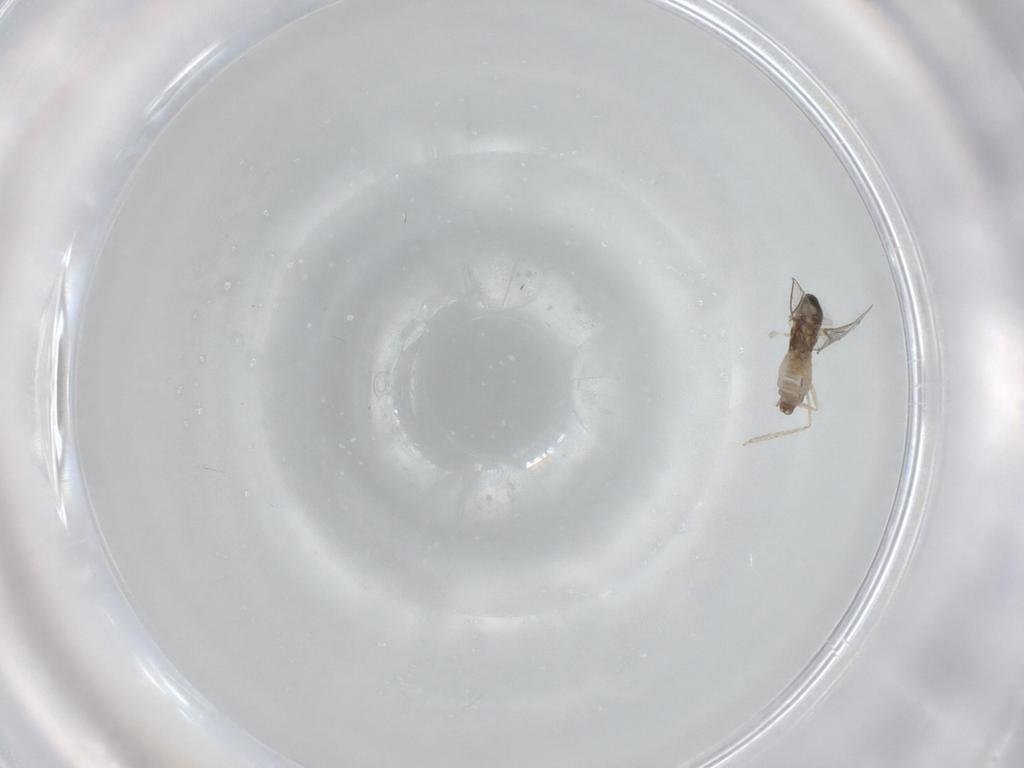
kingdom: Animalia
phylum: Arthropoda
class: Insecta
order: Diptera
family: Cecidomyiidae
